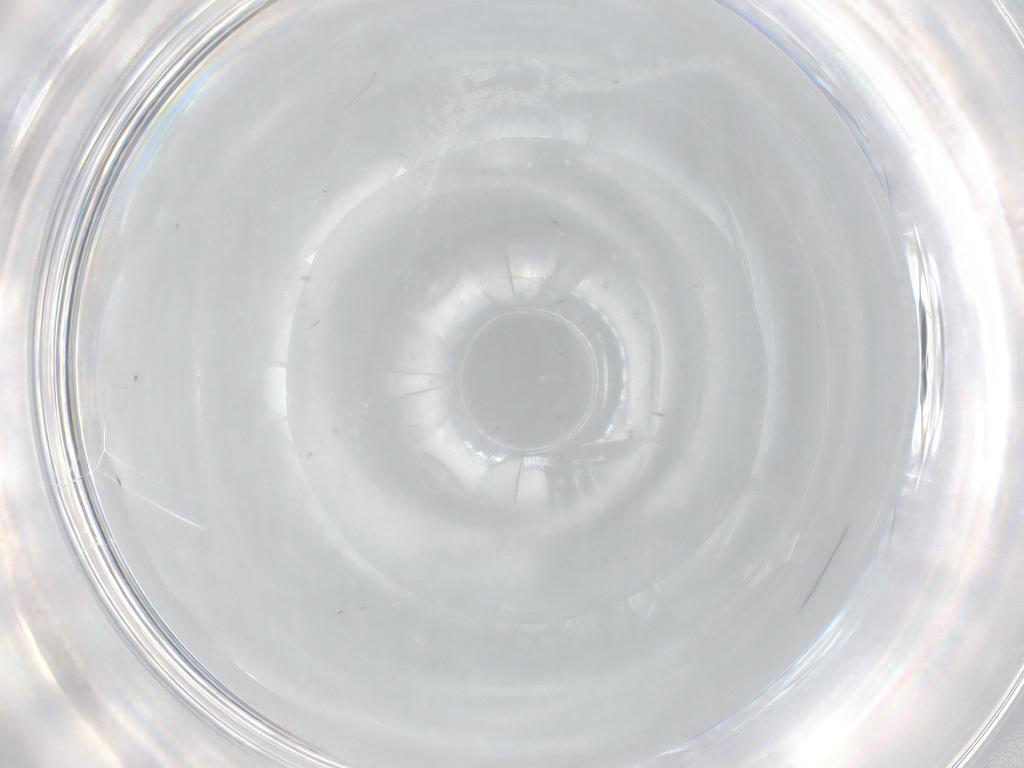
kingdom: Animalia
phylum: Arthropoda
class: Insecta
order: Diptera
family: Cecidomyiidae
